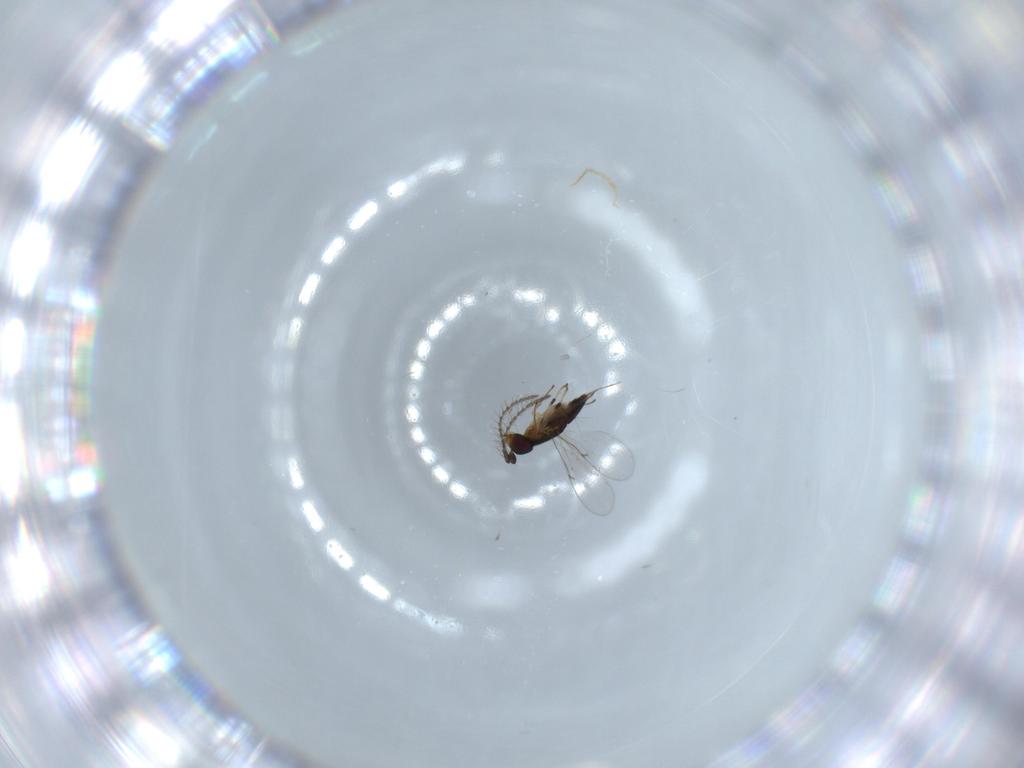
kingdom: Animalia
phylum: Arthropoda
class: Insecta
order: Hymenoptera
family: Encyrtidae
